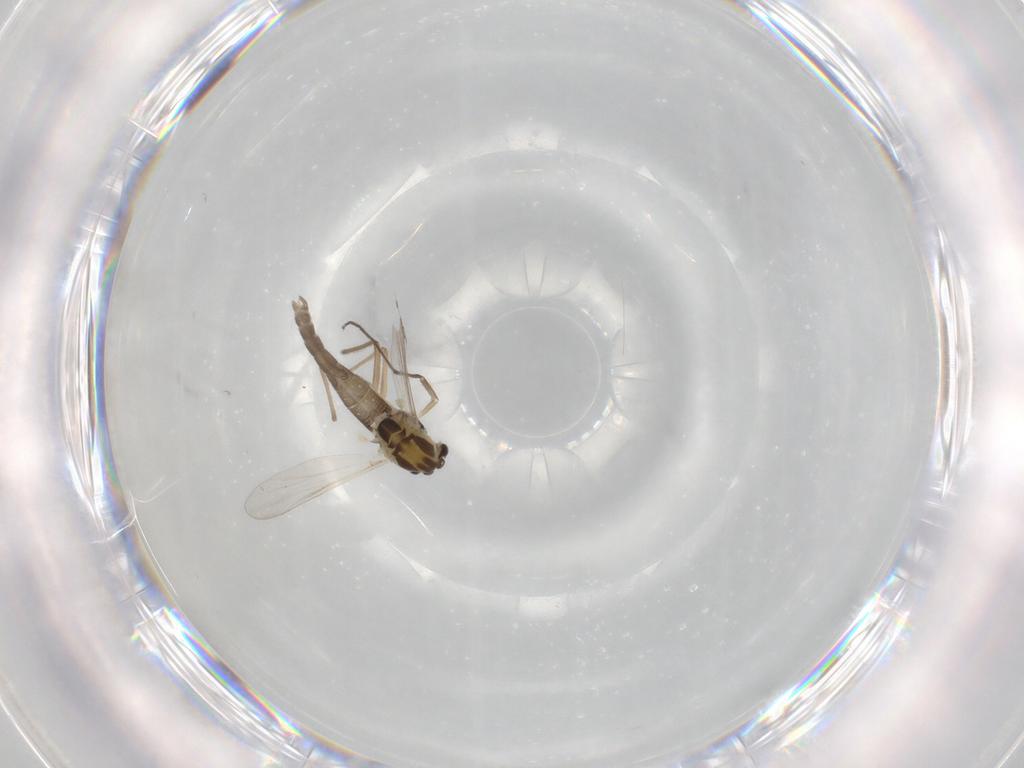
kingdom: Animalia
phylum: Arthropoda
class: Insecta
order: Diptera
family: Chironomidae
